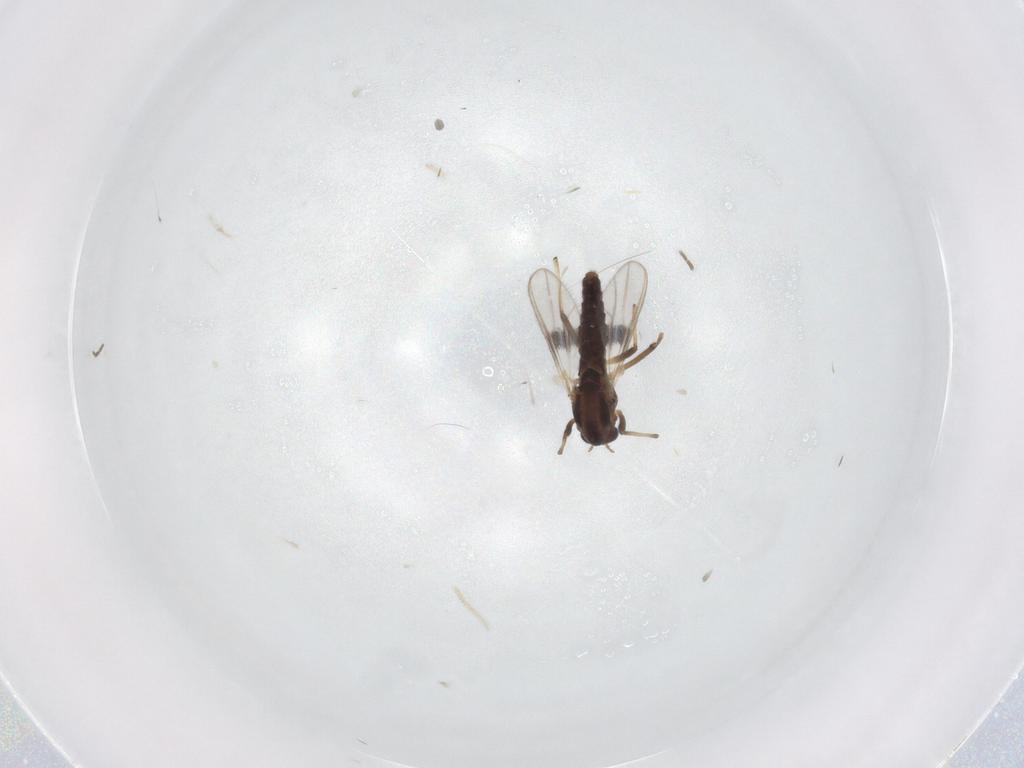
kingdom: Animalia
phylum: Arthropoda
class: Insecta
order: Diptera
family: Chironomidae
